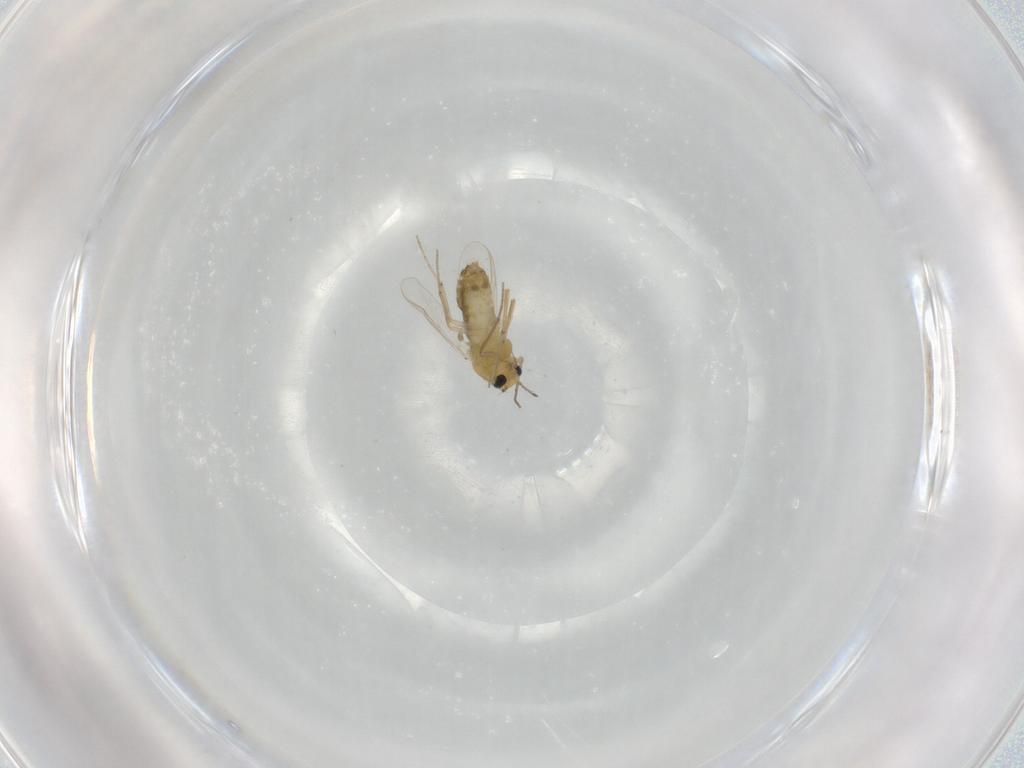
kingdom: Animalia
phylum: Arthropoda
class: Insecta
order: Diptera
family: Chironomidae
